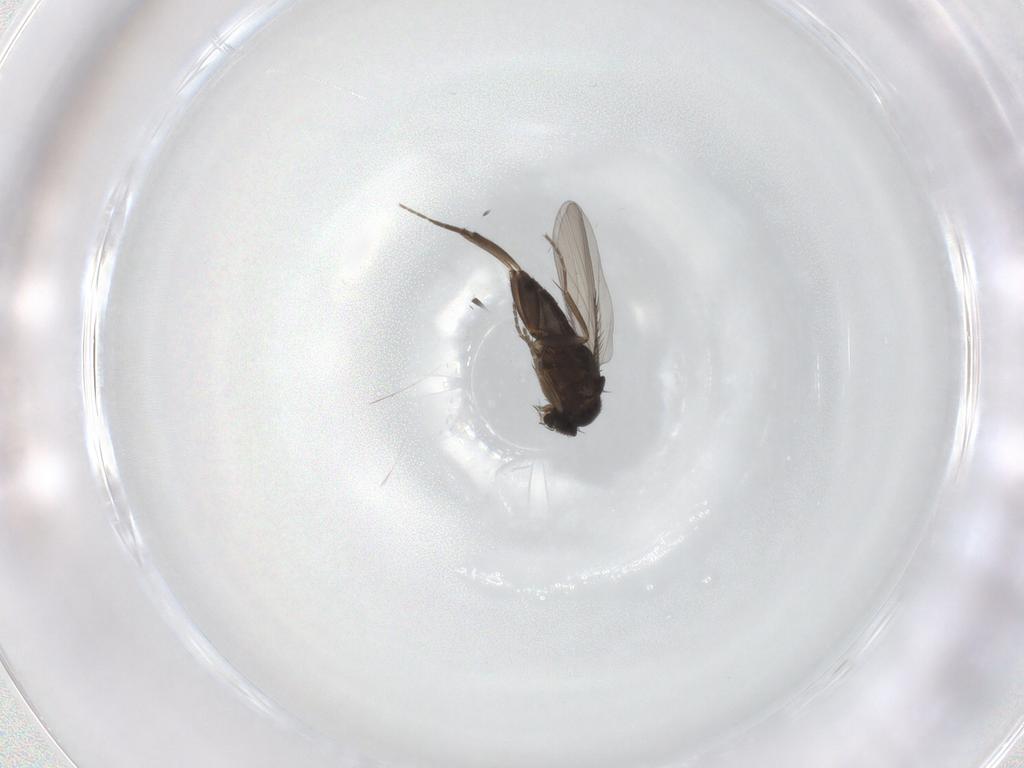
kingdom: Animalia
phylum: Arthropoda
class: Insecta
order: Diptera
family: Phoridae
